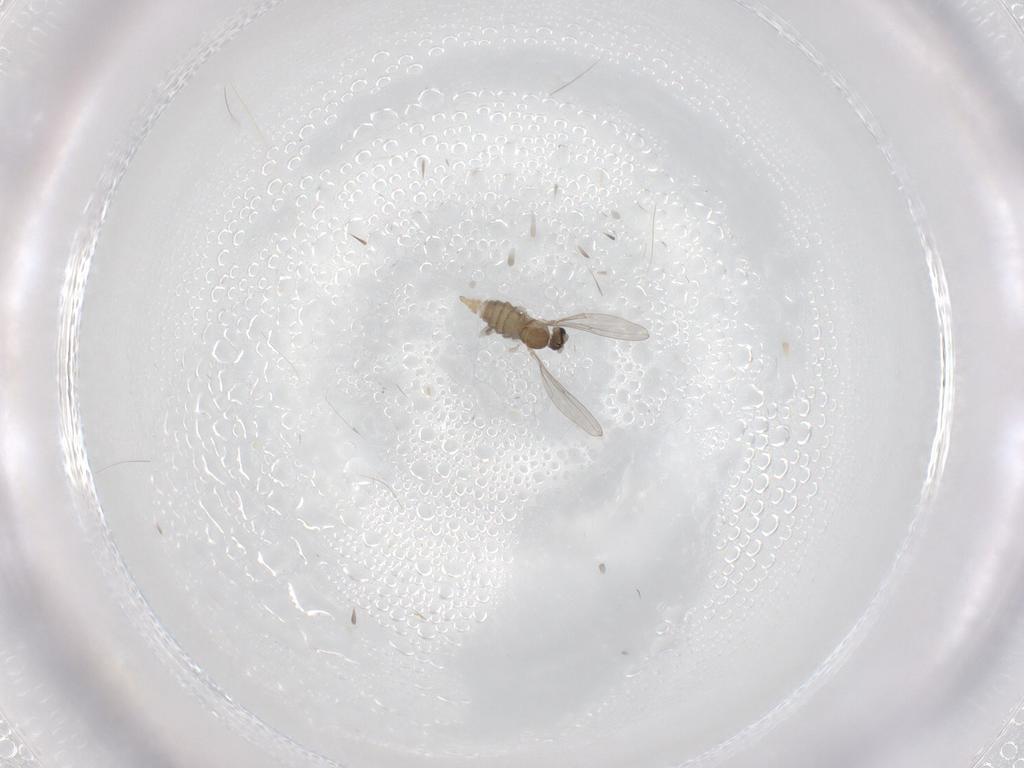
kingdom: Animalia
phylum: Arthropoda
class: Insecta
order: Diptera
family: Cecidomyiidae
